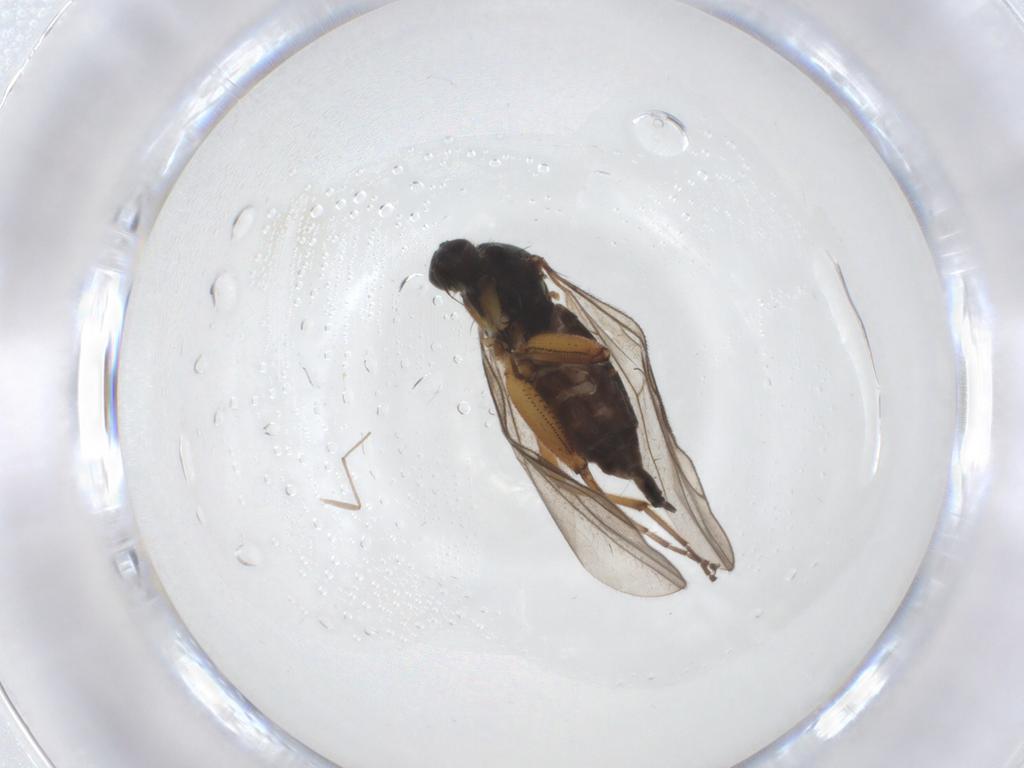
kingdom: Animalia
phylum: Arthropoda
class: Insecta
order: Diptera
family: Hybotidae
